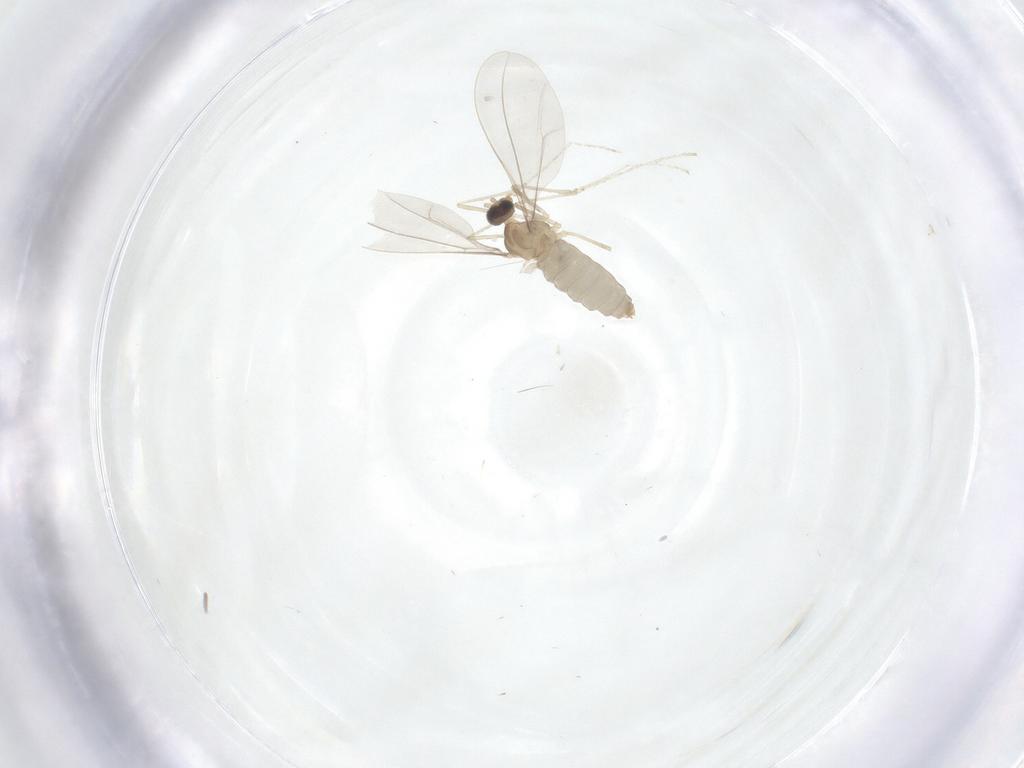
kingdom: Animalia
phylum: Arthropoda
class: Insecta
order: Diptera
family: Cecidomyiidae
